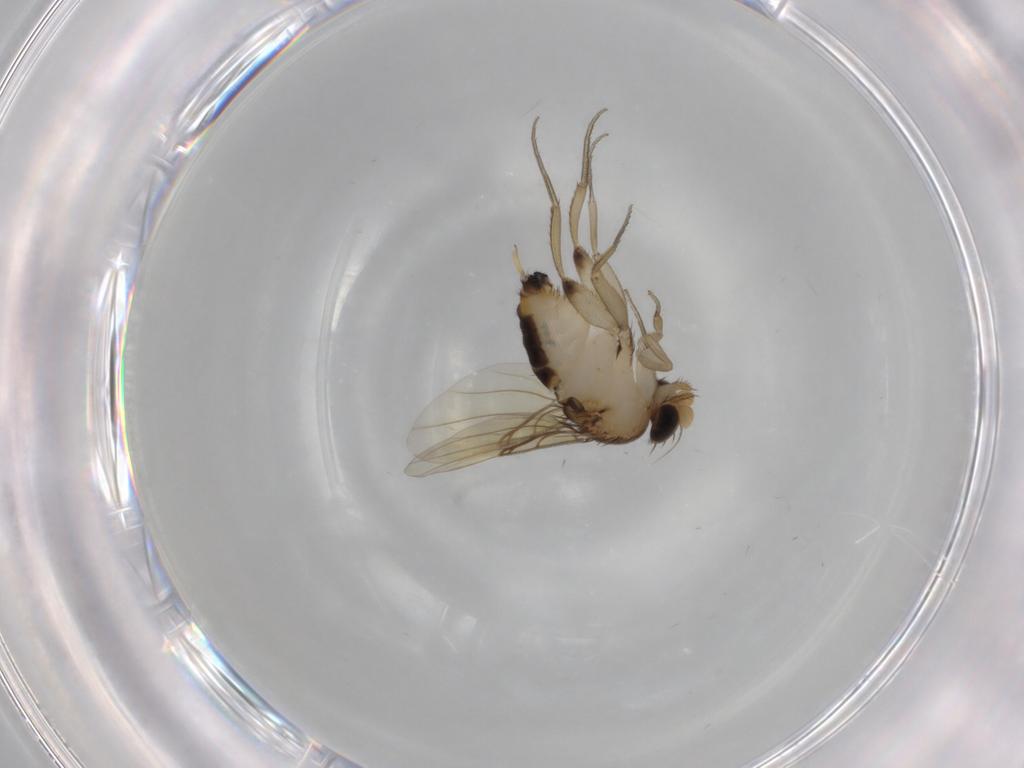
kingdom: Animalia
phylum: Arthropoda
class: Insecta
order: Diptera
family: Phoridae
